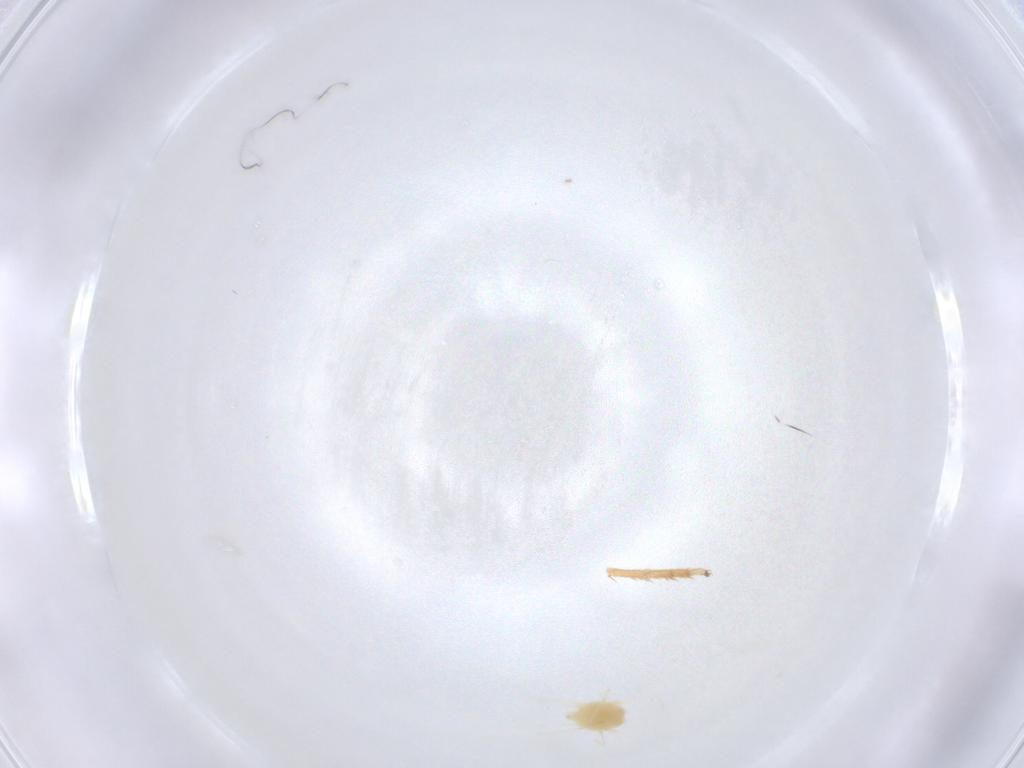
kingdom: Animalia
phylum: Arthropoda
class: Arachnida
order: Trombidiformes
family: Tetranychidae
